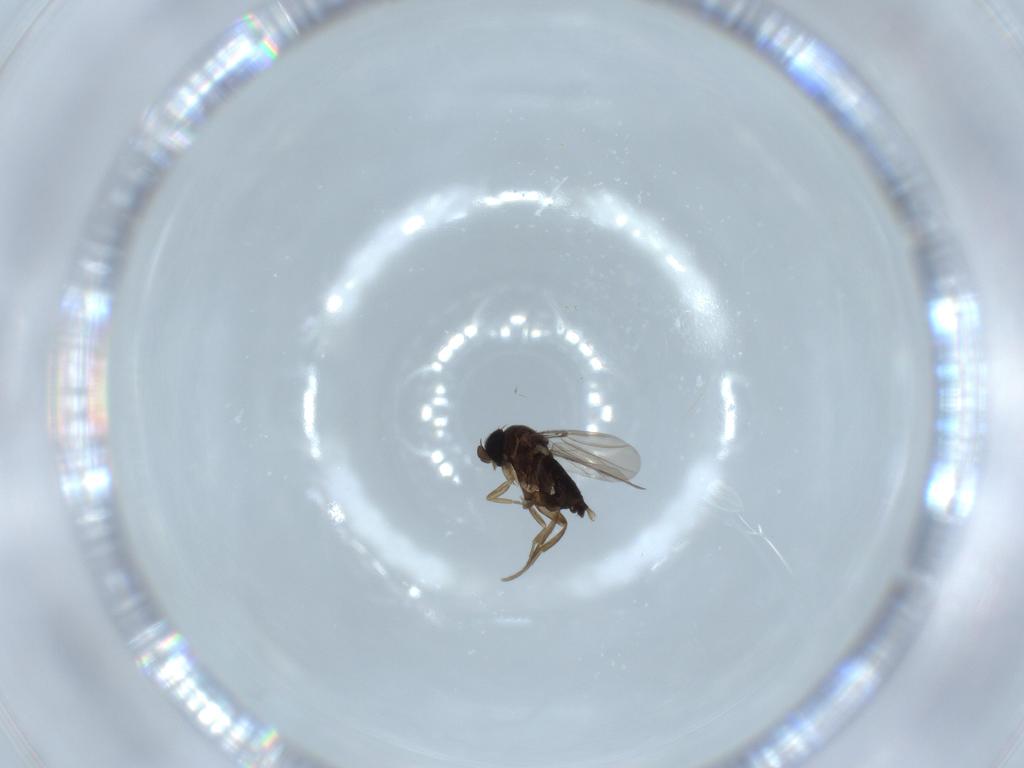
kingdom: Animalia
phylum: Arthropoda
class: Insecta
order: Diptera
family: Phoridae
